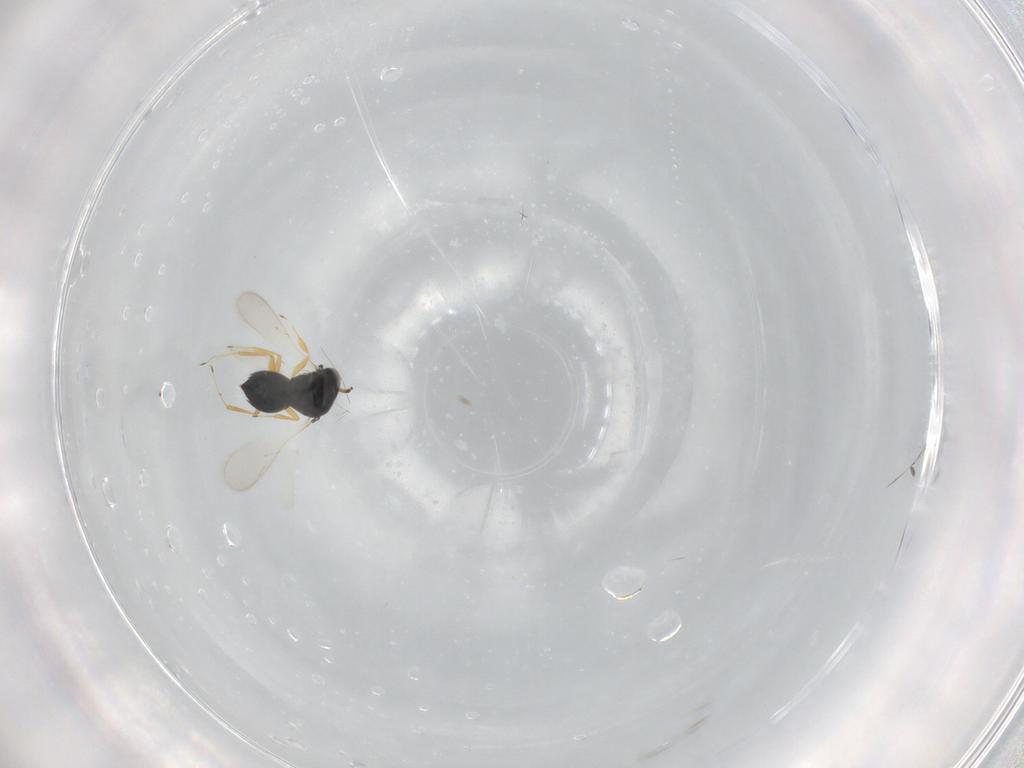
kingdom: Animalia
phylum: Arthropoda
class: Insecta
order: Hymenoptera
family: Scelionidae
